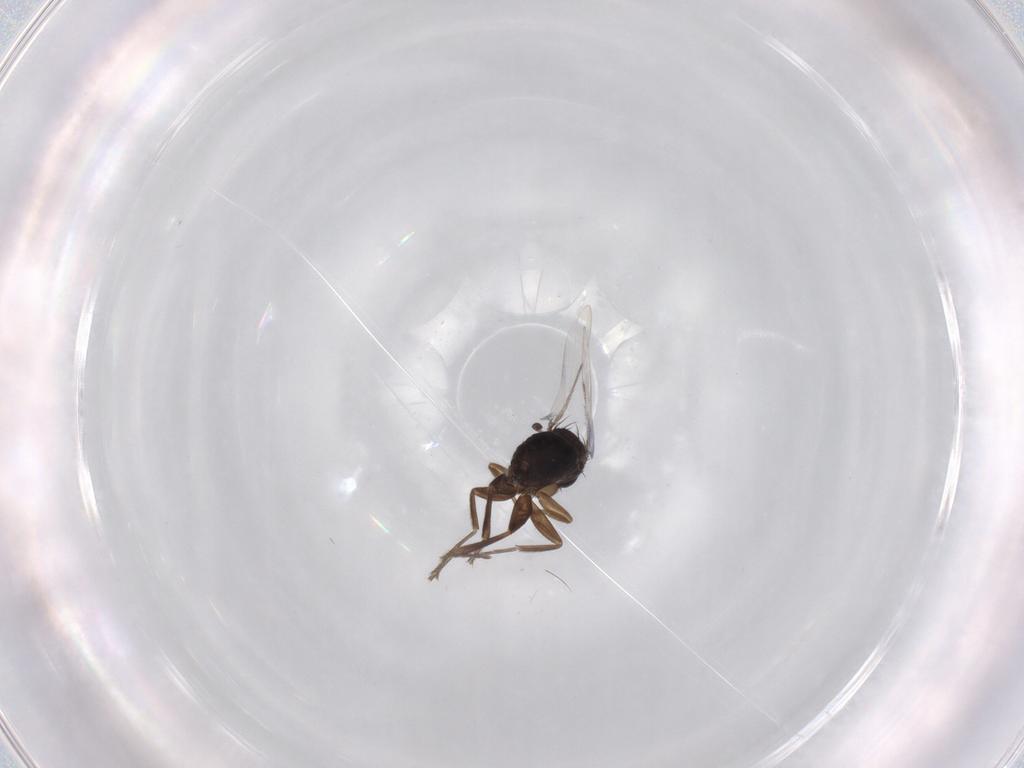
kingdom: Animalia
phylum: Arthropoda
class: Insecta
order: Diptera
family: Phoridae
